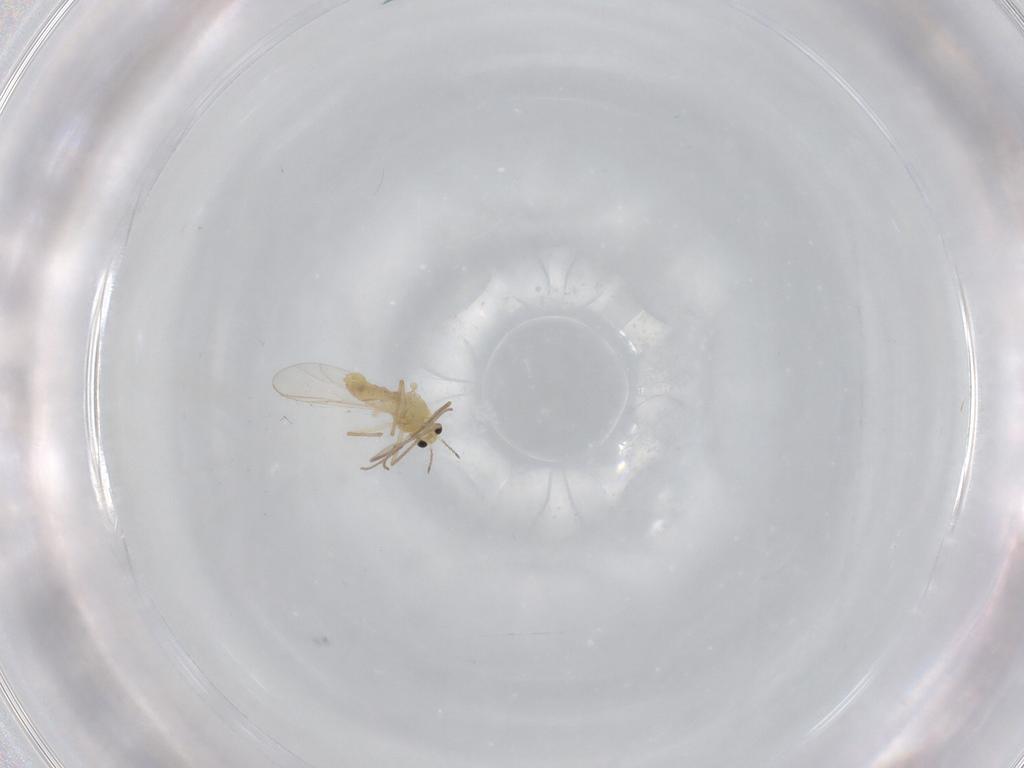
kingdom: Animalia
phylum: Arthropoda
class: Insecta
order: Diptera
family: Chironomidae
